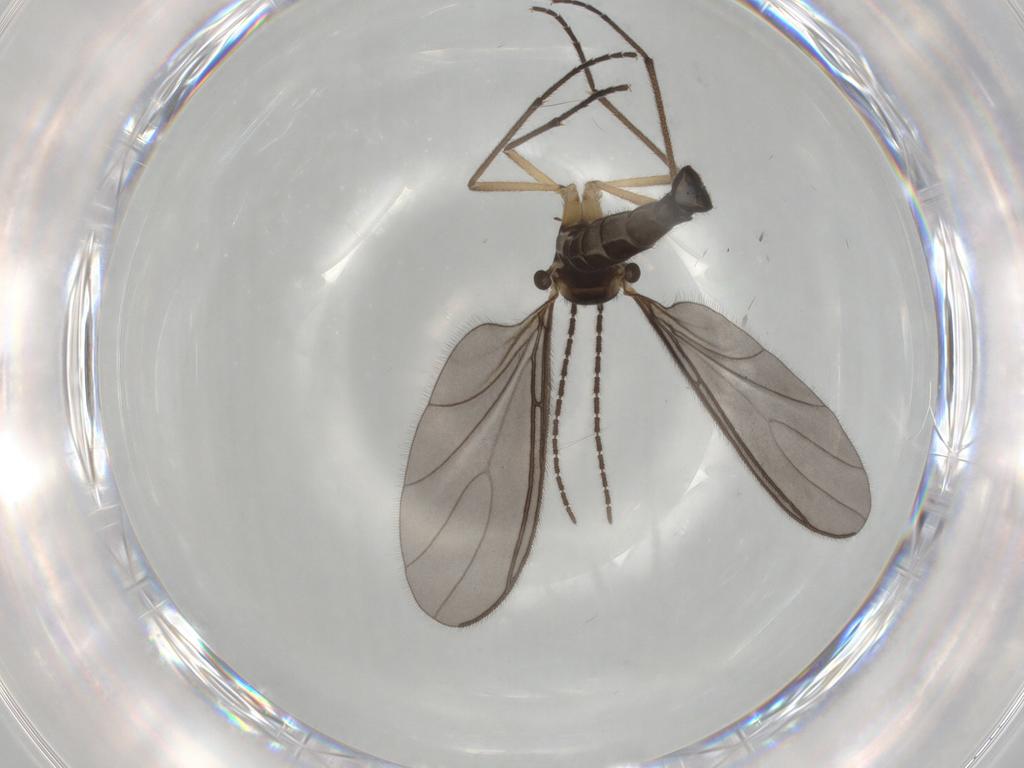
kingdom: Animalia
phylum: Arthropoda
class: Insecta
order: Diptera
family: Sciaridae
